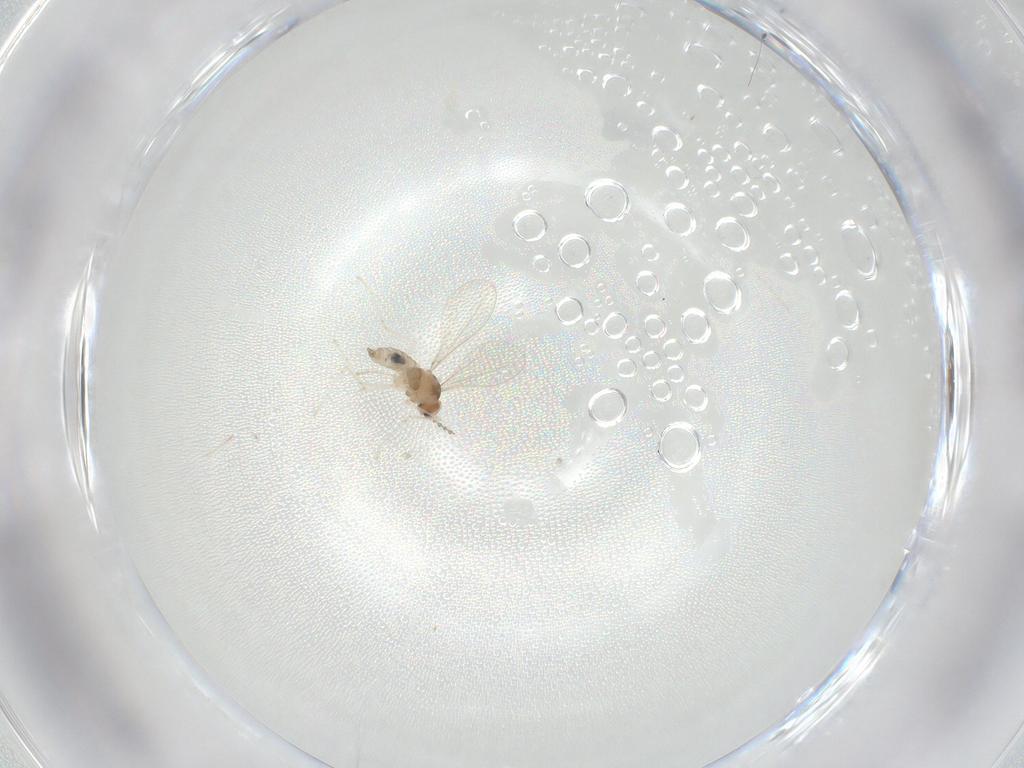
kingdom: Animalia
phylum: Arthropoda
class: Insecta
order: Diptera
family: Cecidomyiidae
